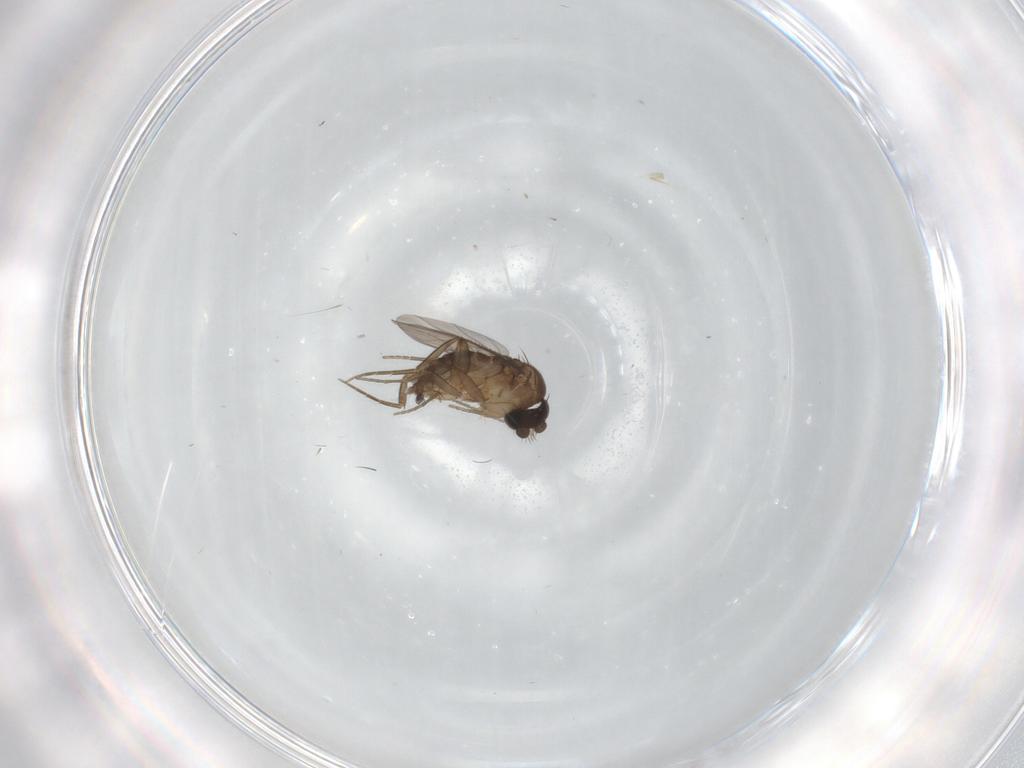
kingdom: Animalia
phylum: Arthropoda
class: Insecta
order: Diptera
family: Phoridae
